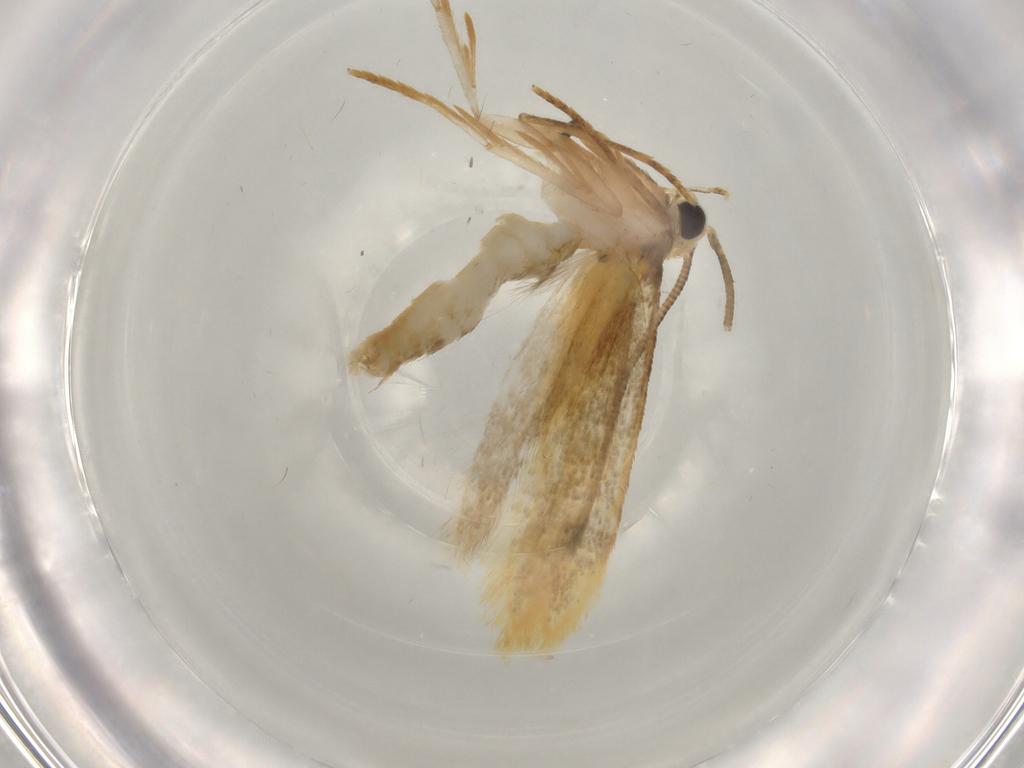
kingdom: Animalia
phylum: Arthropoda
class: Insecta
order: Lepidoptera
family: Tineidae
